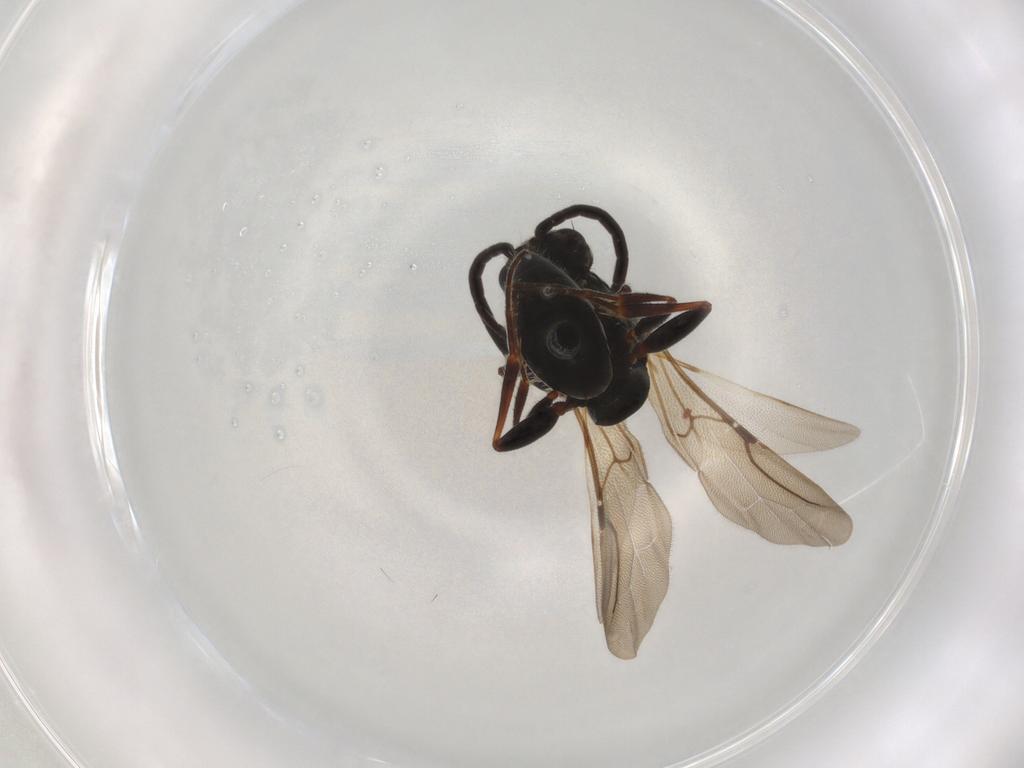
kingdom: Animalia
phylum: Arthropoda
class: Insecta
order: Hymenoptera
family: Bethylidae
